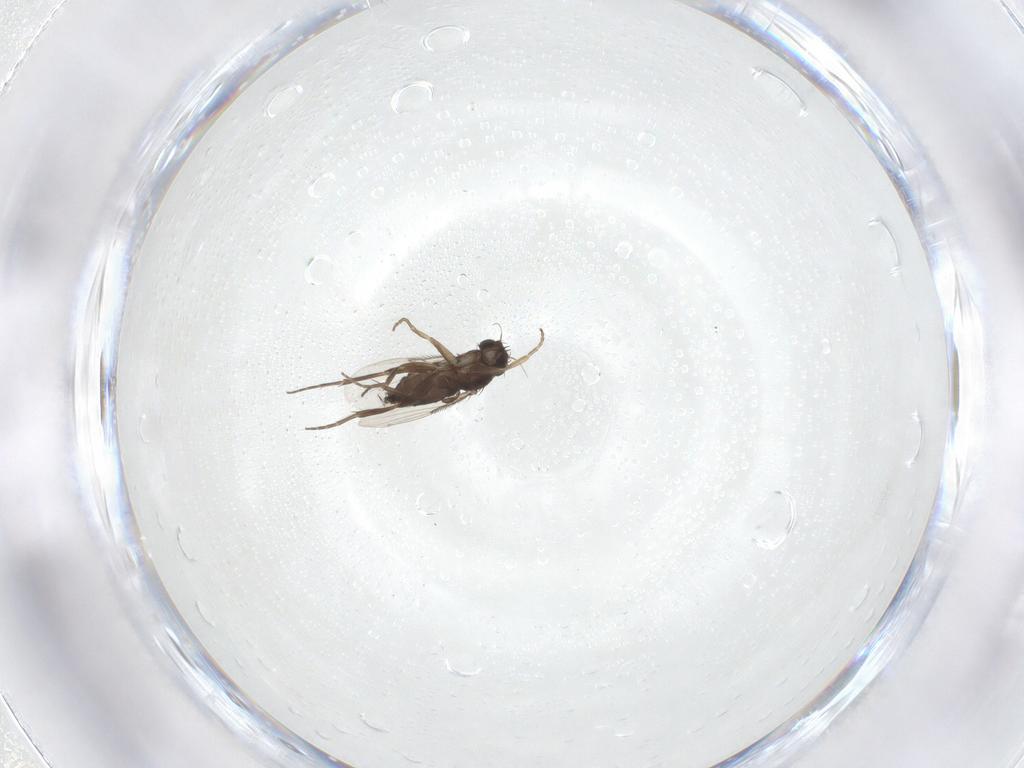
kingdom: Animalia
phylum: Arthropoda
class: Insecta
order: Diptera
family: Phoridae
